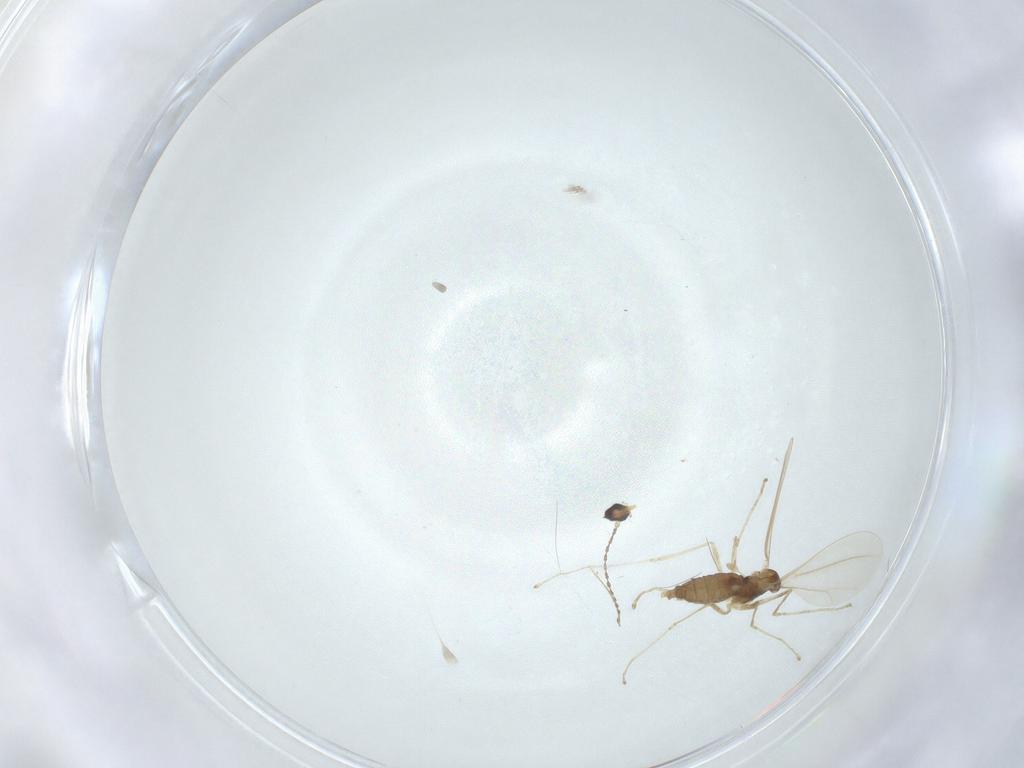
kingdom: Animalia
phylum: Arthropoda
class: Insecta
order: Diptera
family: Cecidomyiidae
